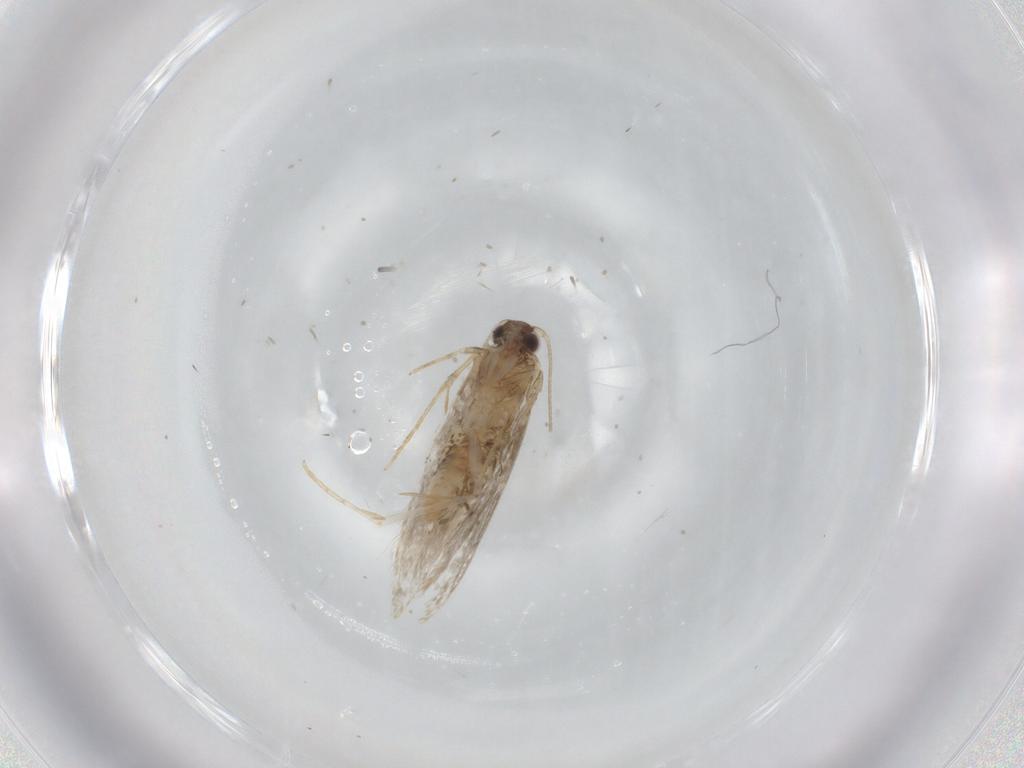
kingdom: Animalia
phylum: Arthropoda
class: Insecta
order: Lepidoptera
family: Tineidae
